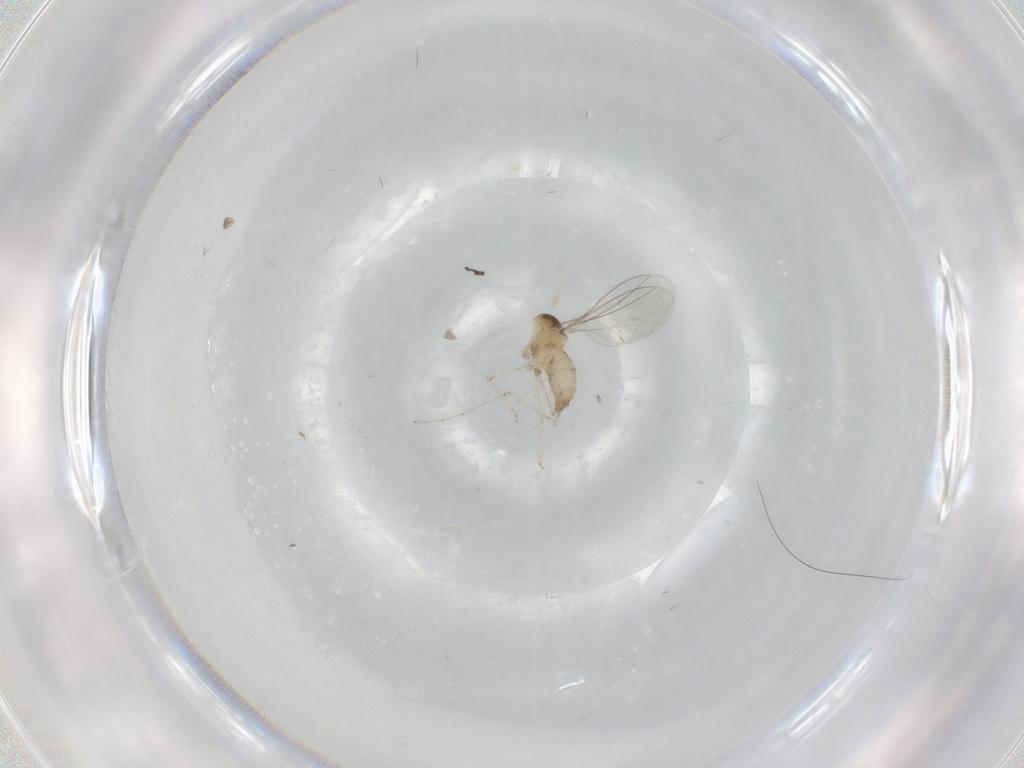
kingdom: Animalia
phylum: Arthropoda
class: Insecta
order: Diptera
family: Cecidomyiidae
